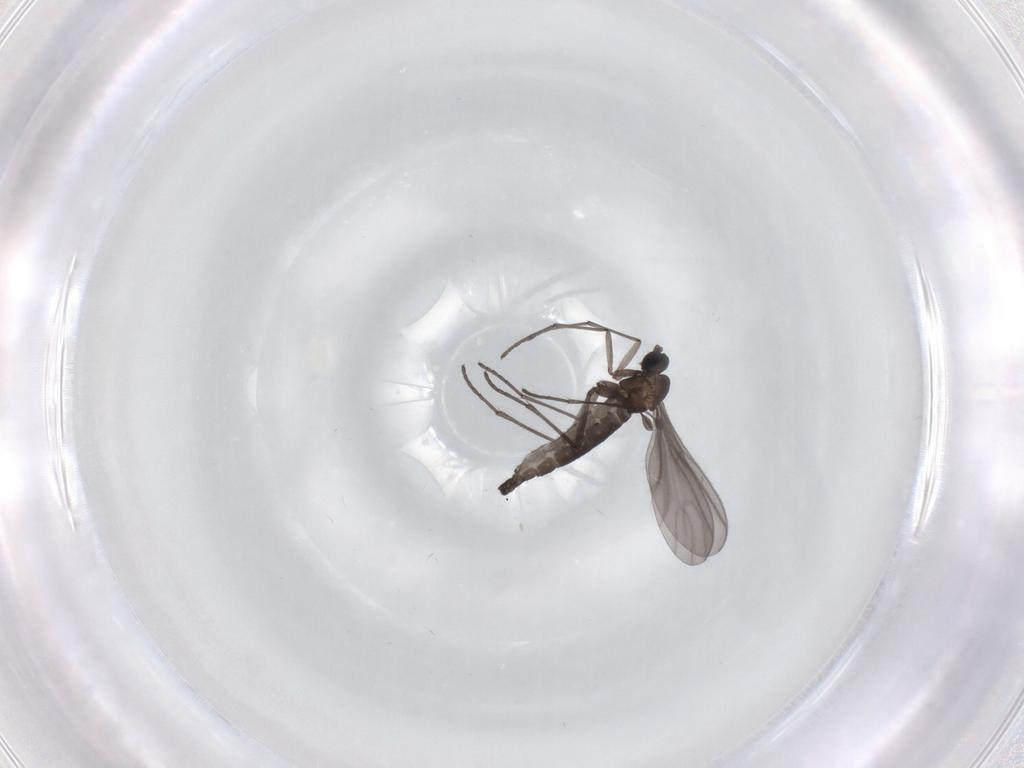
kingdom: Animalia
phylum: Arthropoda
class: Insecta
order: Diptera
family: Sciaridae
